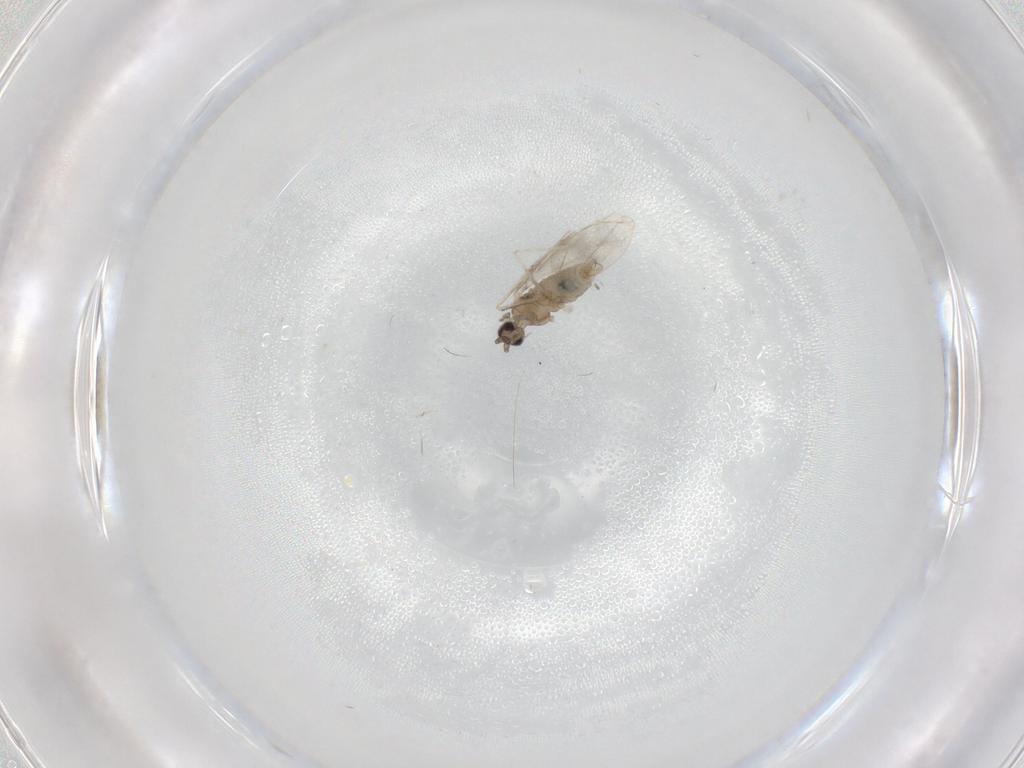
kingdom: Animalia
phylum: Arthropoda
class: Insecta
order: Diptera
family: Cecidomyiidae
